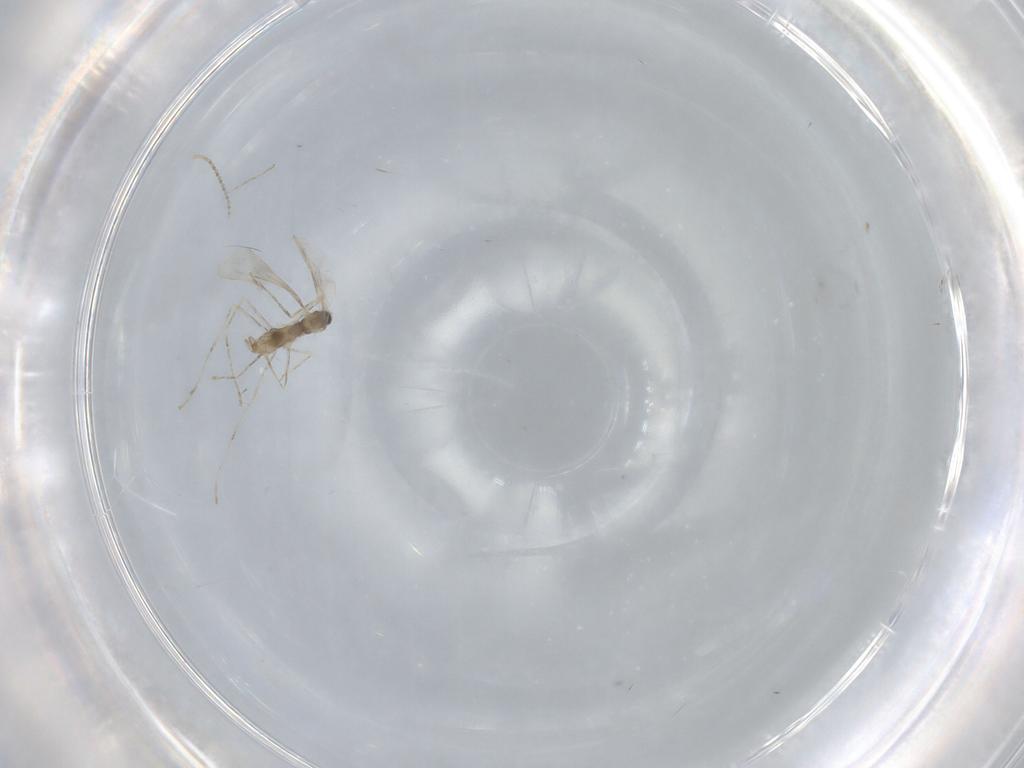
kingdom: Animalia
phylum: Arthropoda
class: Insecta
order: Diptera
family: Cecidomyiidae
